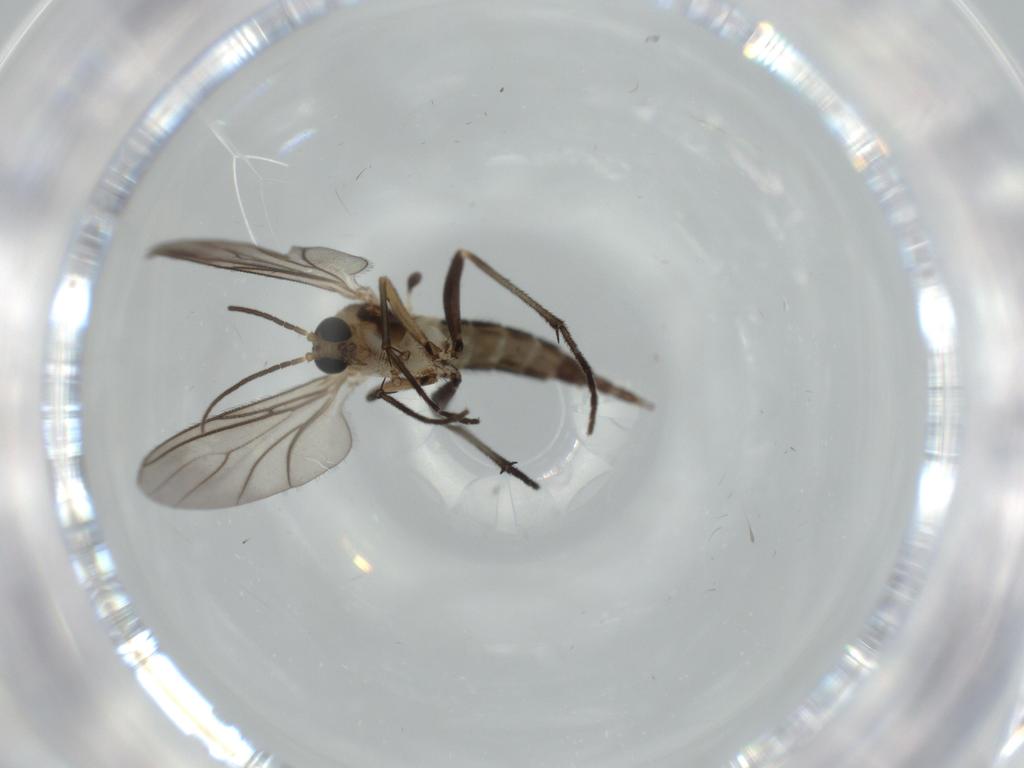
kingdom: Animalia
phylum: Arthropoda
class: Insecta
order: Diptera
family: Sciaridae
